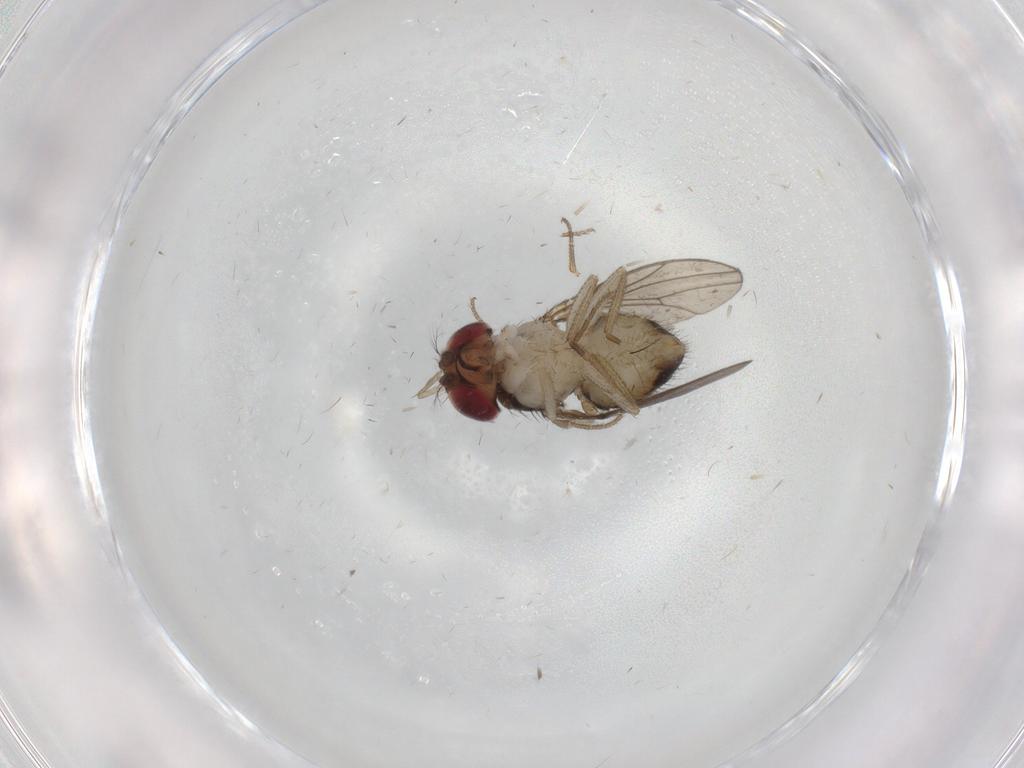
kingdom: Animalia
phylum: Arthropoda
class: Insecta
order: Diptera
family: Drosophilidae
